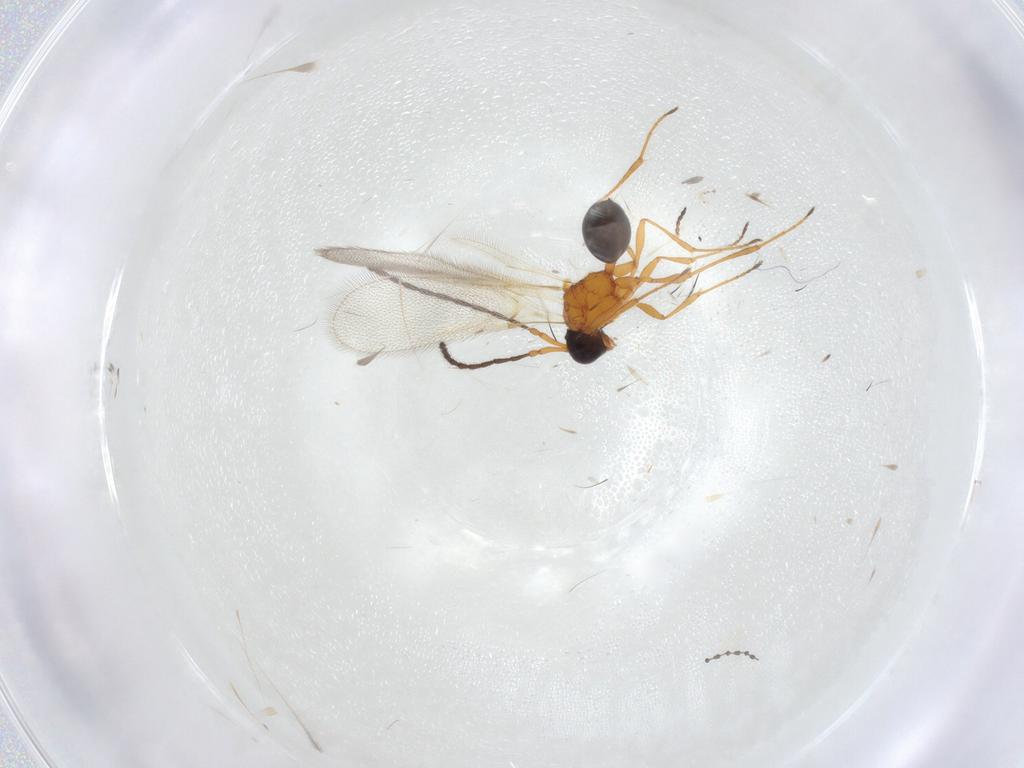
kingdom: Animalia
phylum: Arthropoda
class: Insecta
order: Hymenoptera
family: Diapriidae
